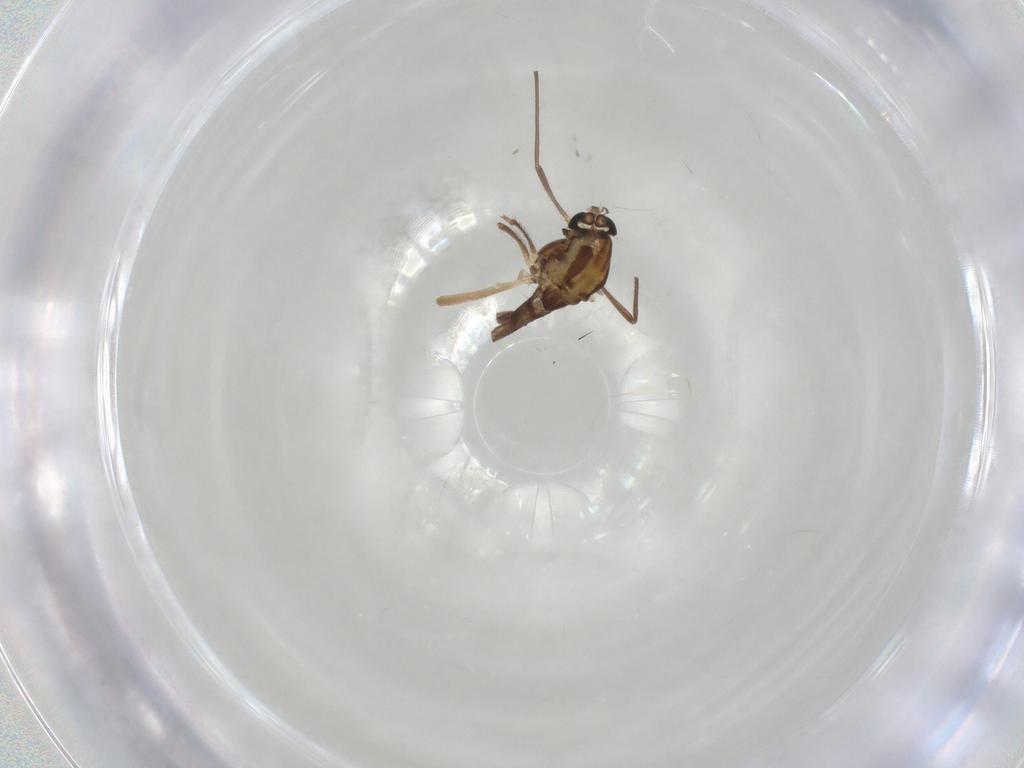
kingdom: Animalia
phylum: Arthropoda
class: Insecta
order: Diptera
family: Chironomidae
